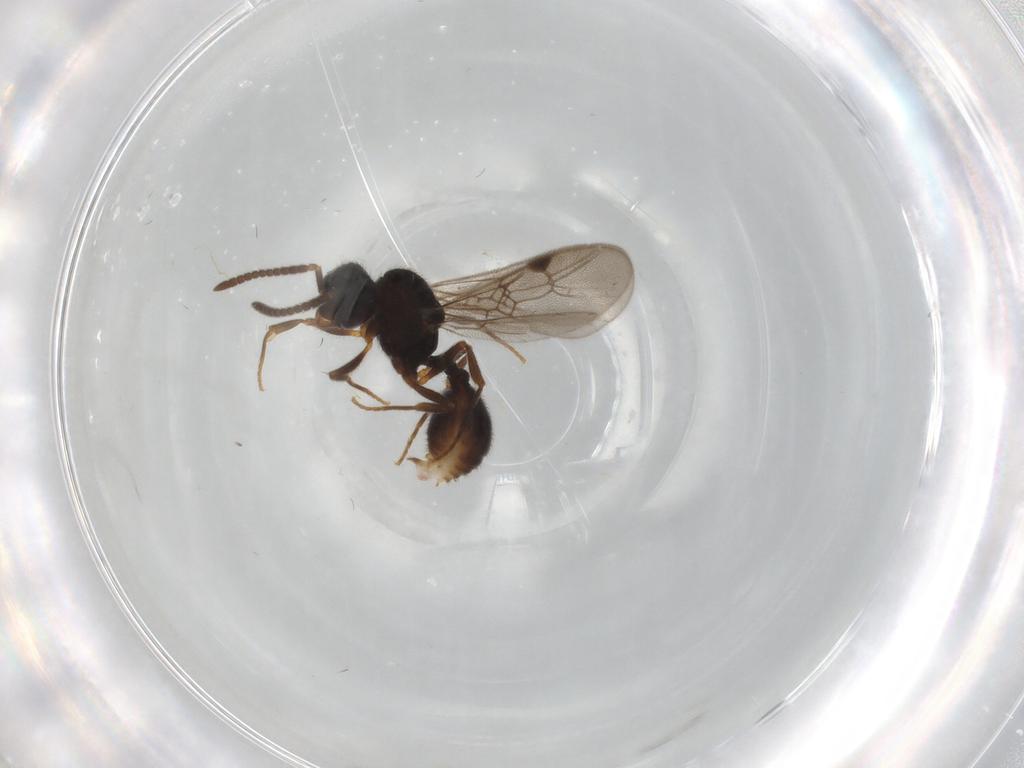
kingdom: Animalia
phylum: Arthropoda
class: Insecta
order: Hymenoptera
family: Formicidae
